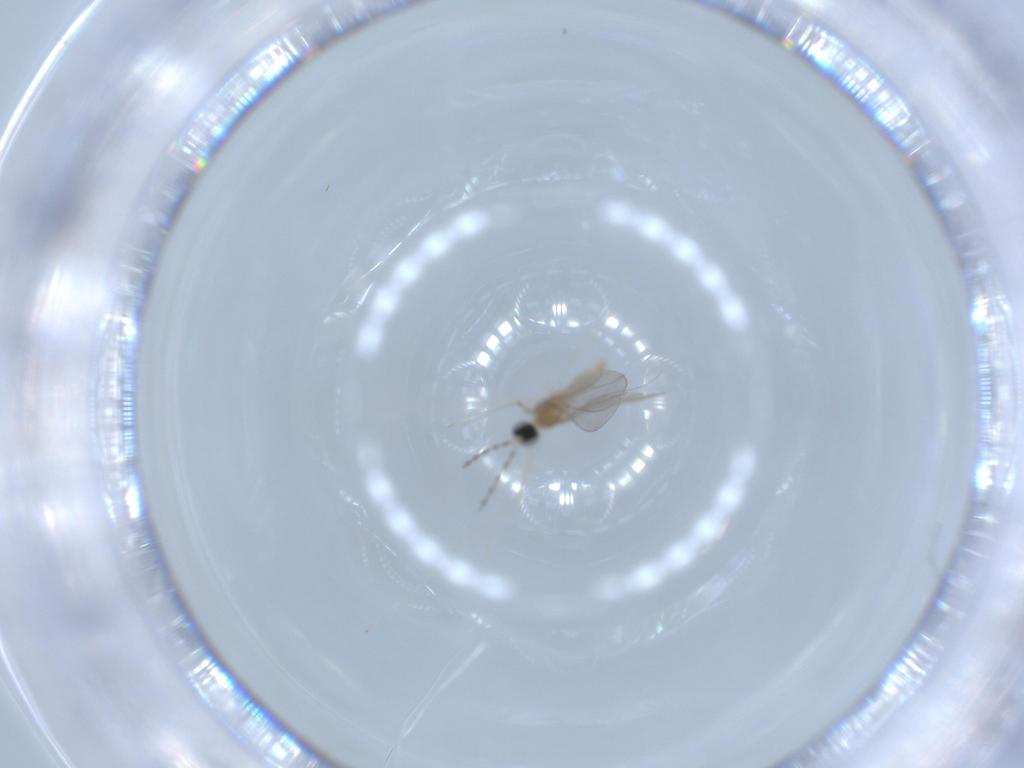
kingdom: Animalia
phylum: Arthropoda
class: Insecta
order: Diptera
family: Cecidomyiidae
